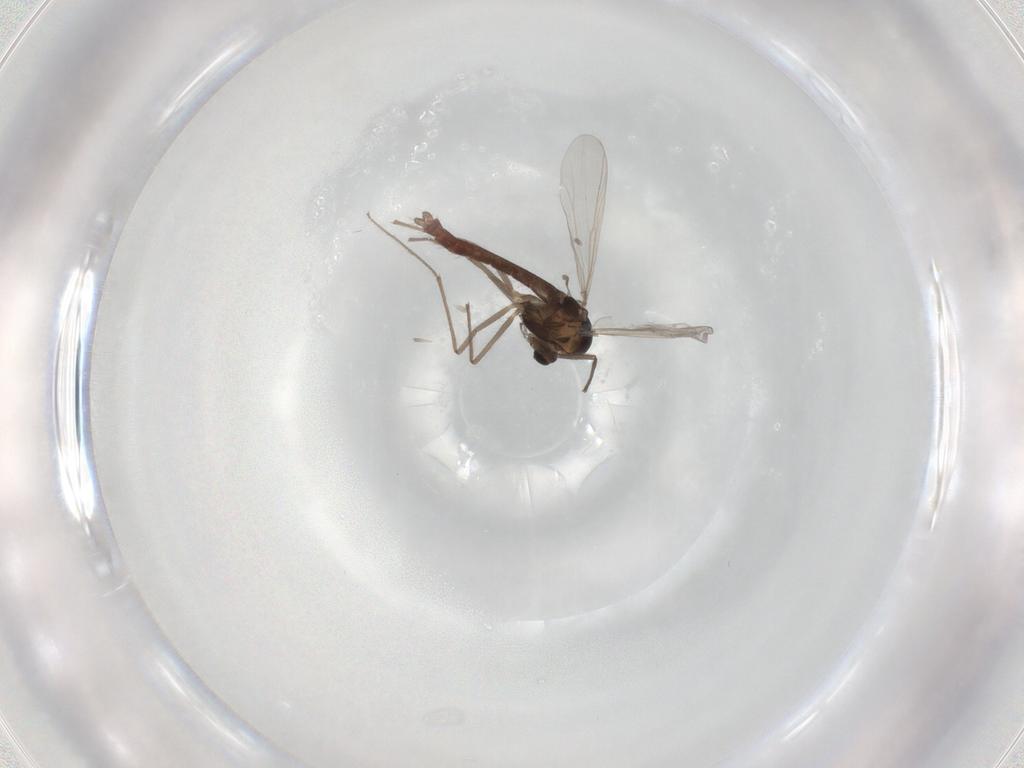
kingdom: Animalia
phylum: Arthropoda
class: Insecta
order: Diptera
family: Chironomidae
